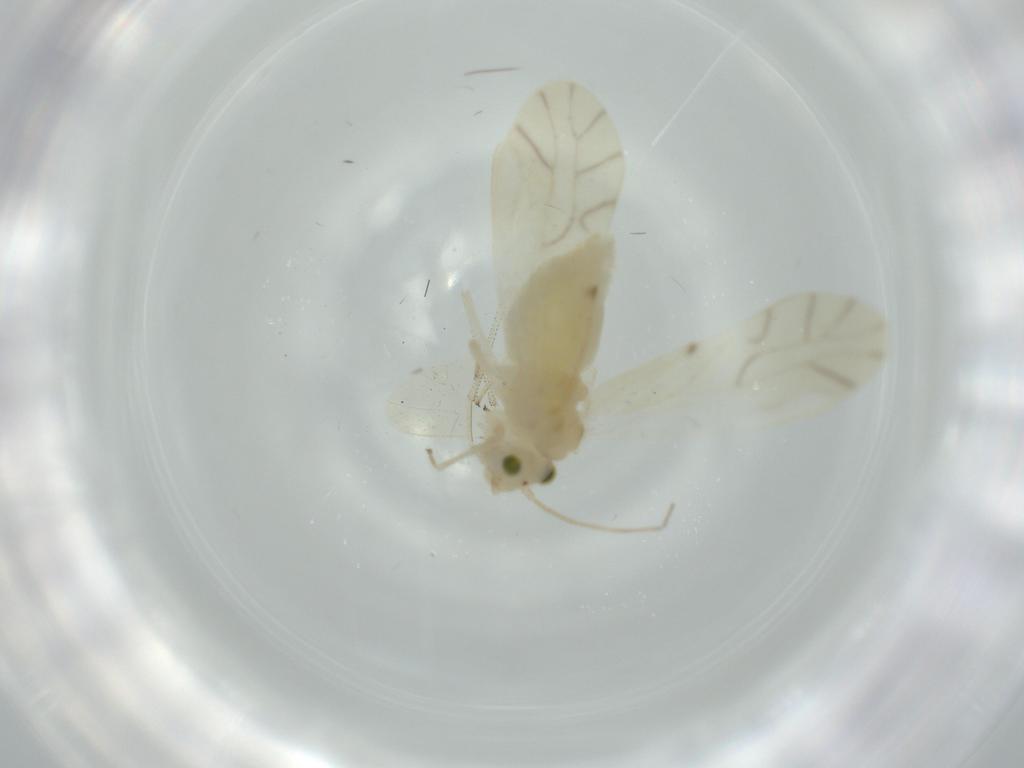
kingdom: Animalia
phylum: Arthropoda
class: Insecta
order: Psocodea
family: Caeciliusidae
